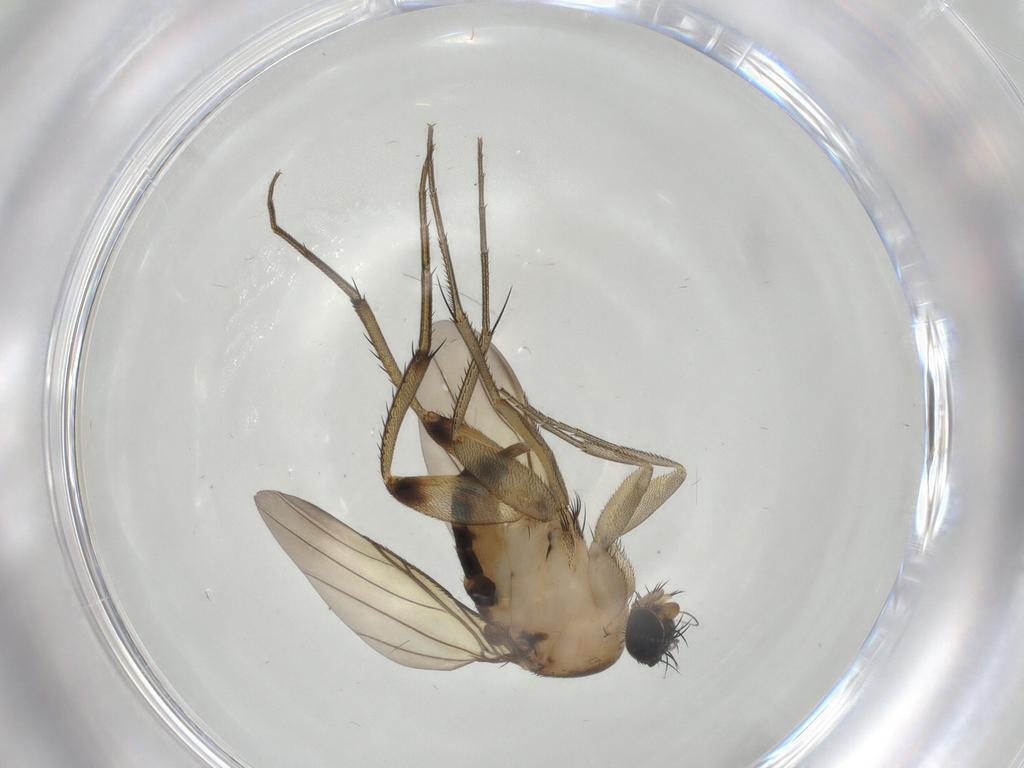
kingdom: Animalia
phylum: Arthropoda
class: Insecta
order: Diptera
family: Phoridae
